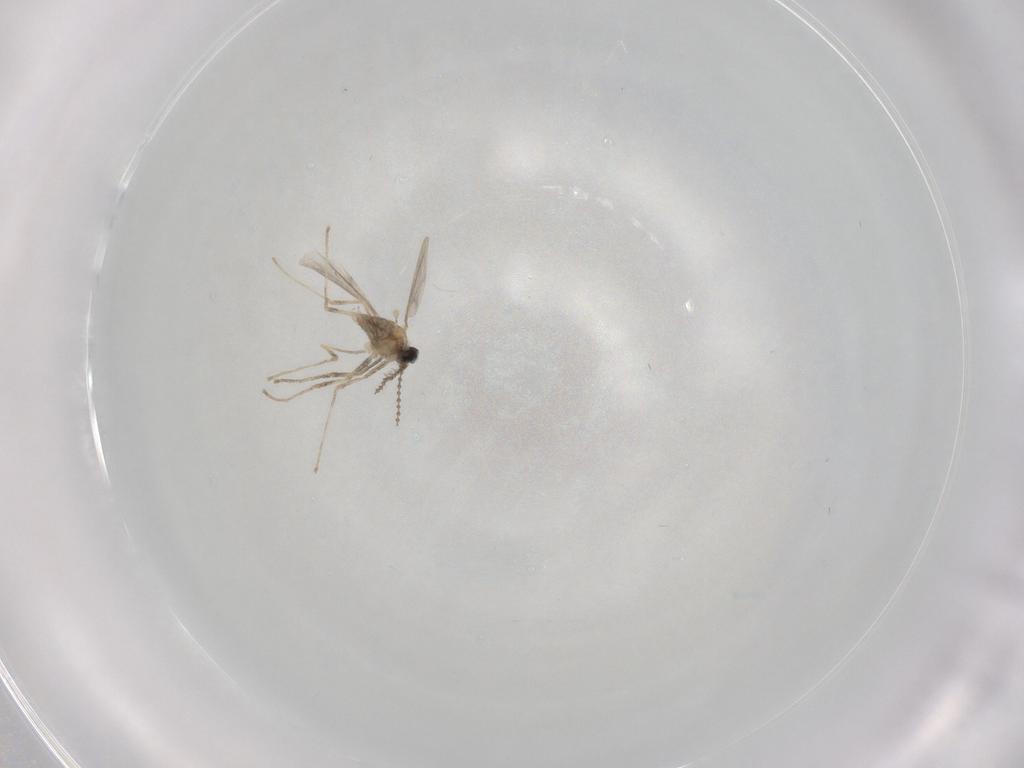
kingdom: Animalia
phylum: Arthropoda
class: Insecta
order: Diptera
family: Cecidomyiidae
